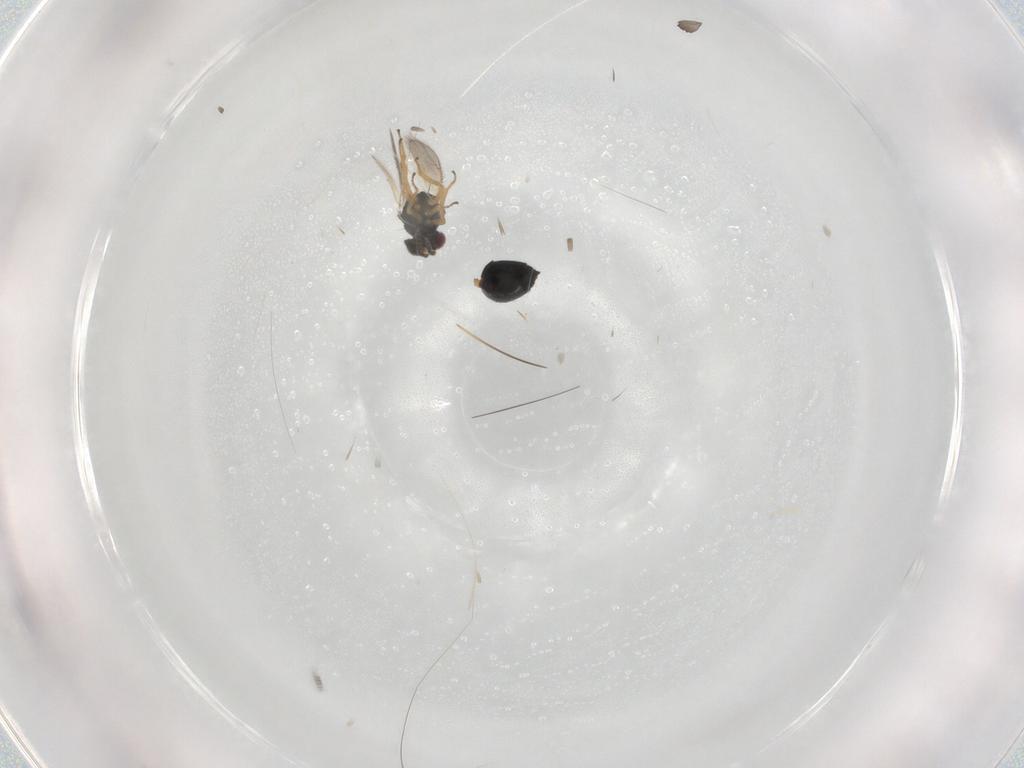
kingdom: Animalia
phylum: Arthropoda
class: Insecta
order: Hymenoptera
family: Tetracampidae
